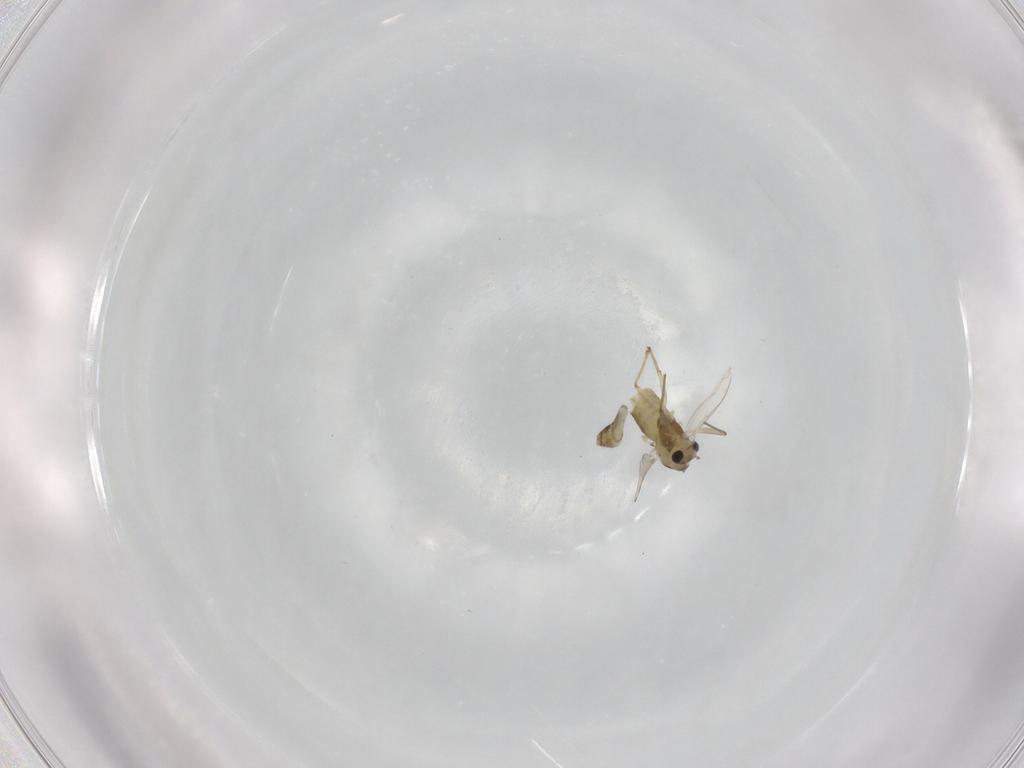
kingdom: Animalia
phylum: Arthropoda
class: Insecta
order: Diptera
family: Chironomidae
